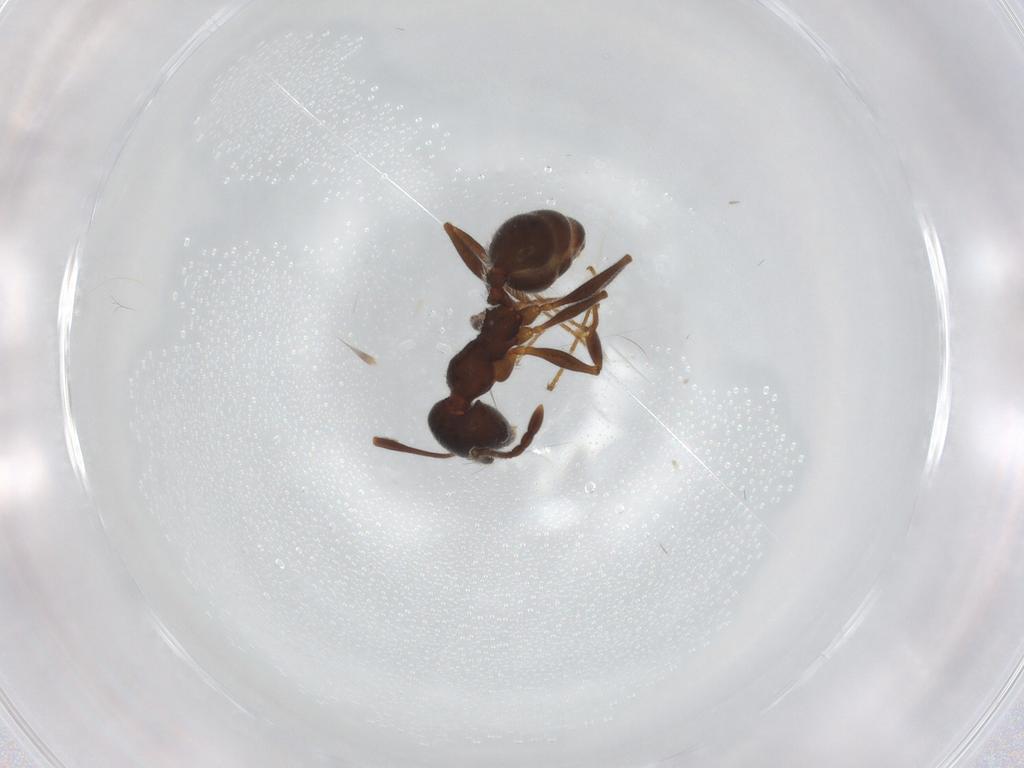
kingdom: Animalia
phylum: Arthropoda
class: Insecta
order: Hymenoptera
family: Formicidae
